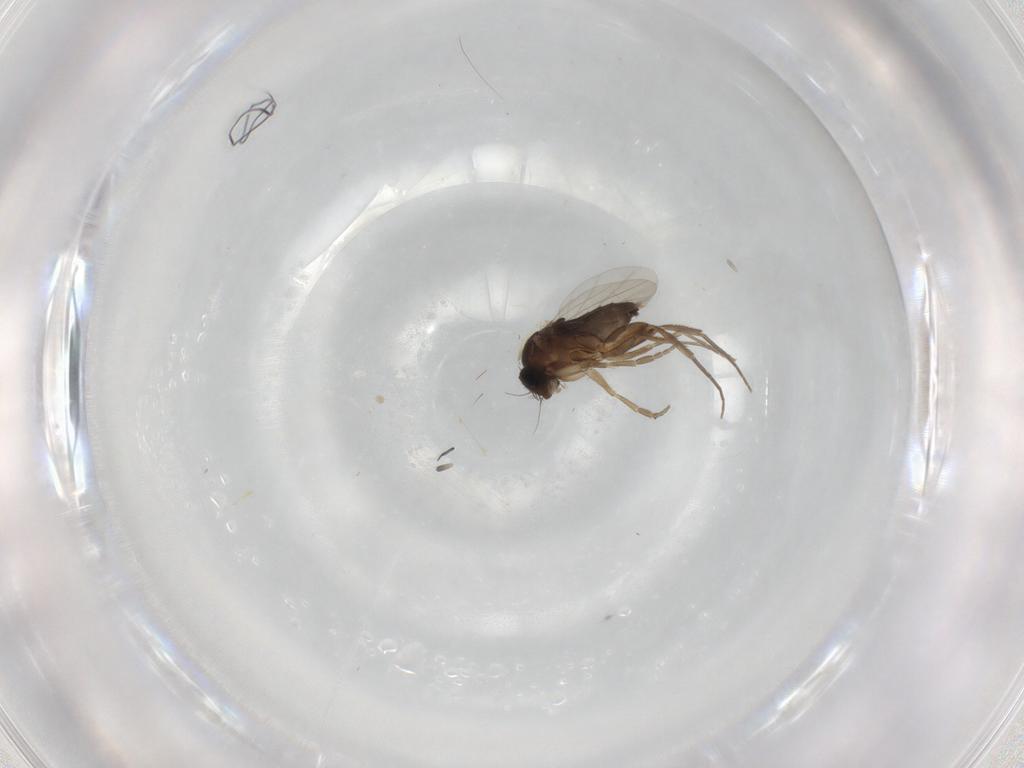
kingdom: Animalia
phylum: Arthropoda
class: Insecta
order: Diptera
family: Phoridae
